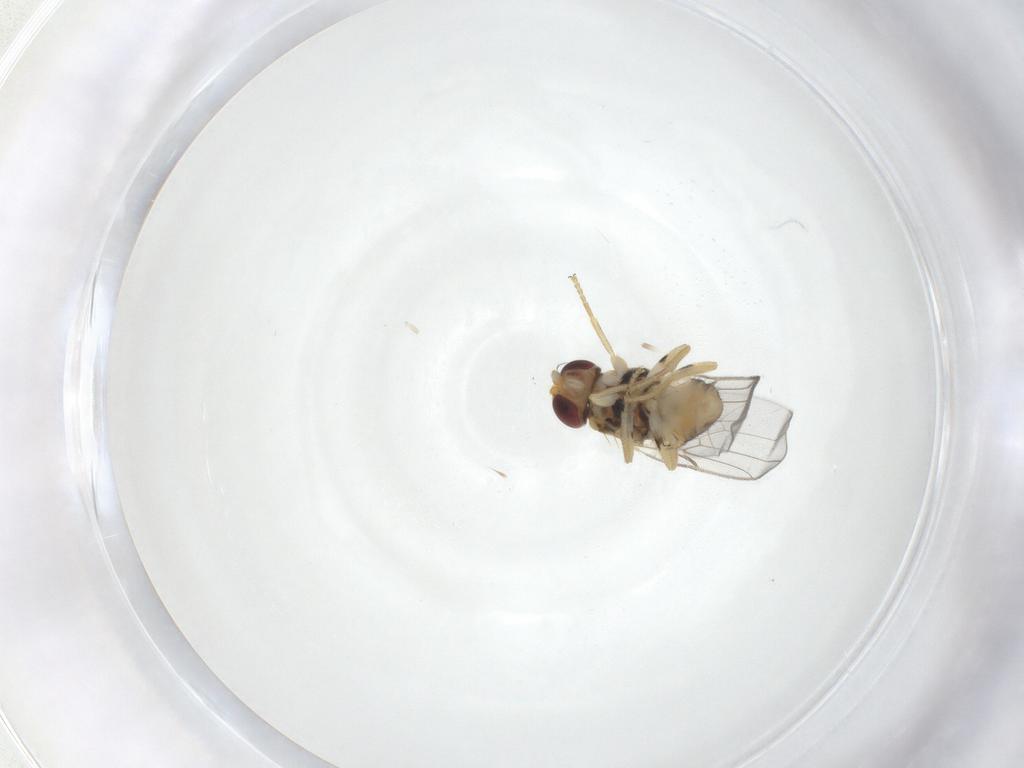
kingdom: Animalia
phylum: Arthropoda
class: Insecta
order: Diptera
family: Chloropidae
